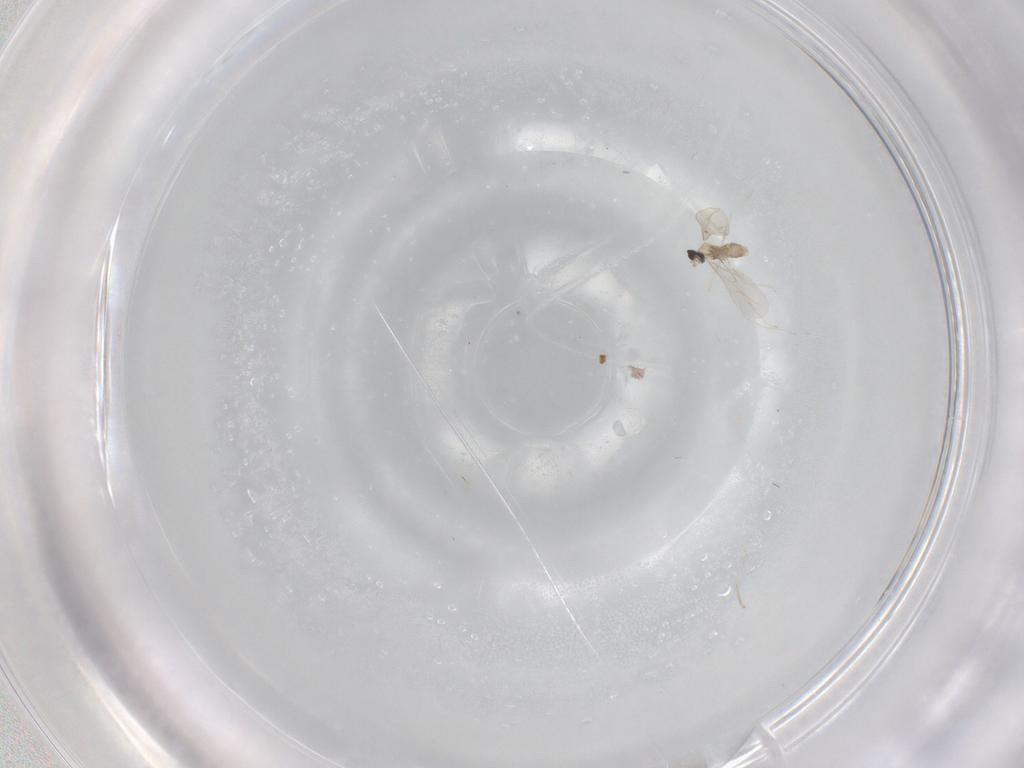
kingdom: Animalia
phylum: Arthropoda
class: Insecta
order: Diptera
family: Cecidomyiidae
